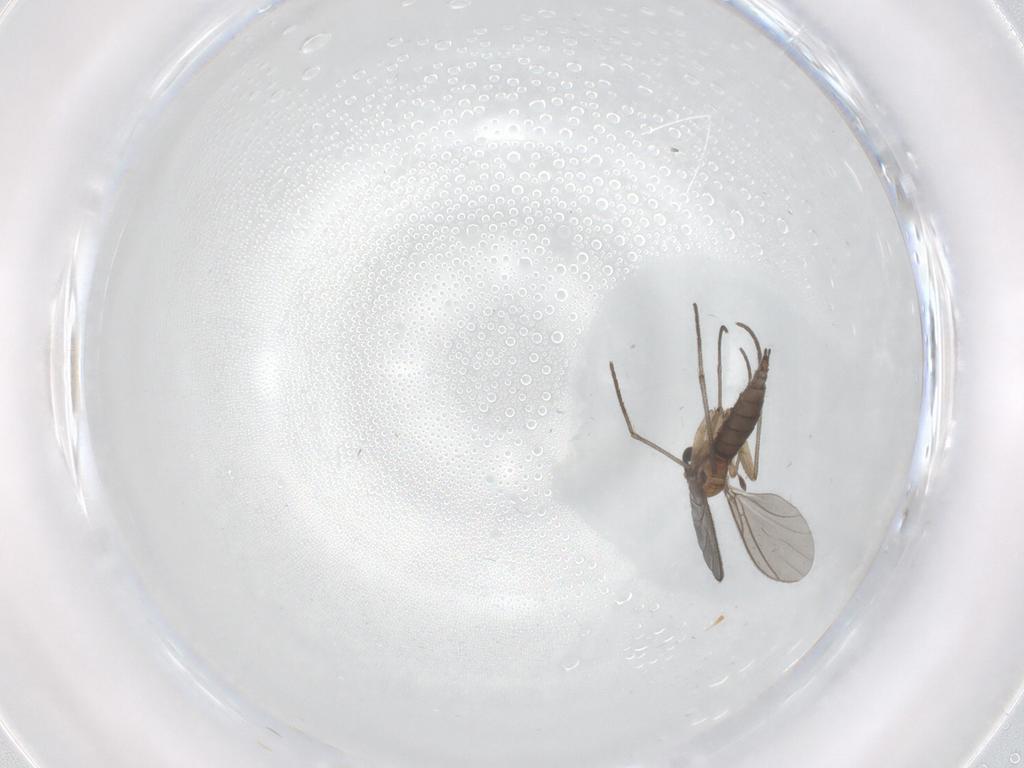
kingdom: Animalia
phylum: Arthropoda
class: Insecta
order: Diptera
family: Sciaridae
